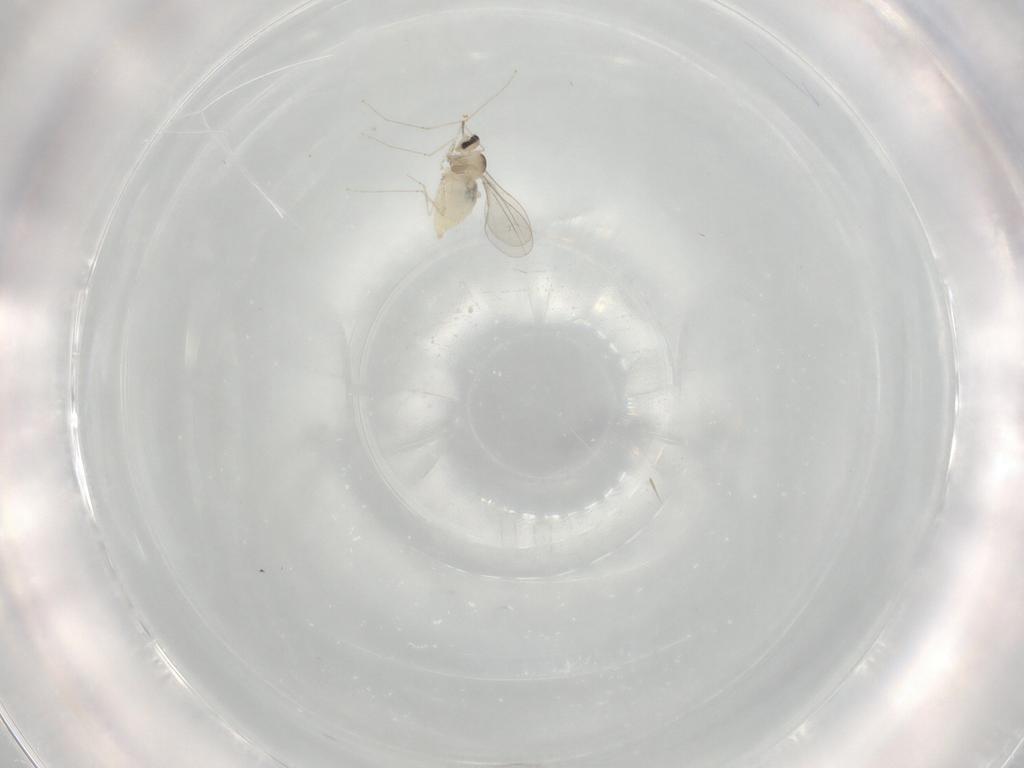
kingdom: Animalia
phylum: Arthropoda
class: Insecta
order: Diptera
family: Cecidomyiidae
